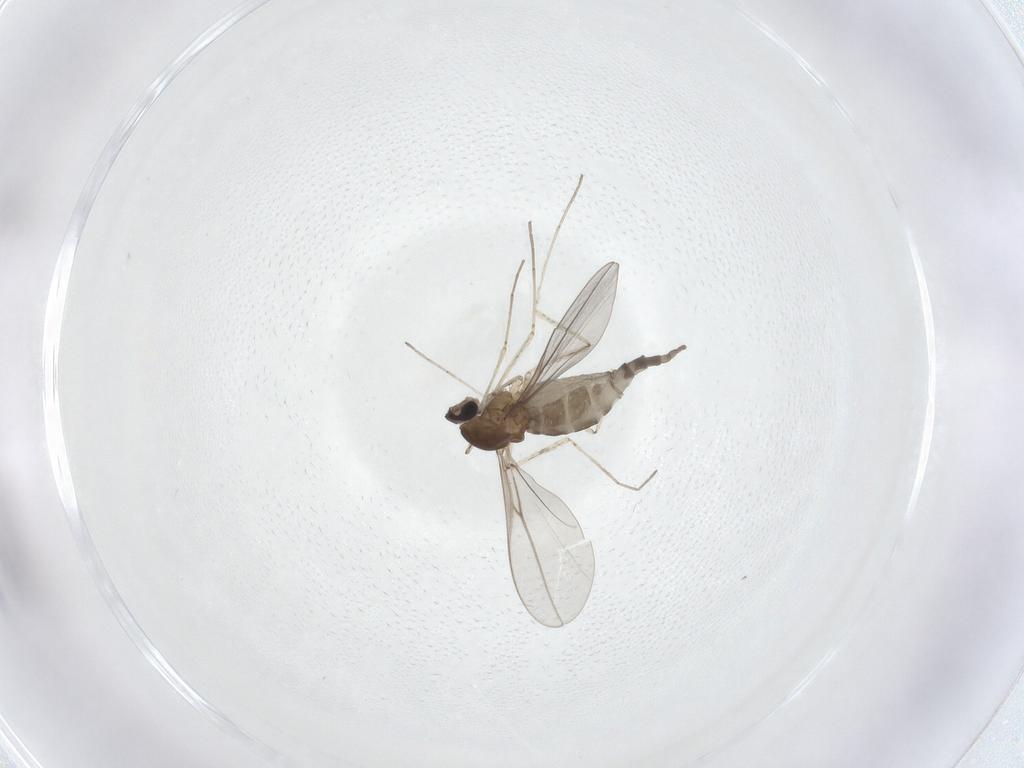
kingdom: Animalia
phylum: Arthropoda
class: Insecta
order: Diptera
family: Cecidomyiidae
